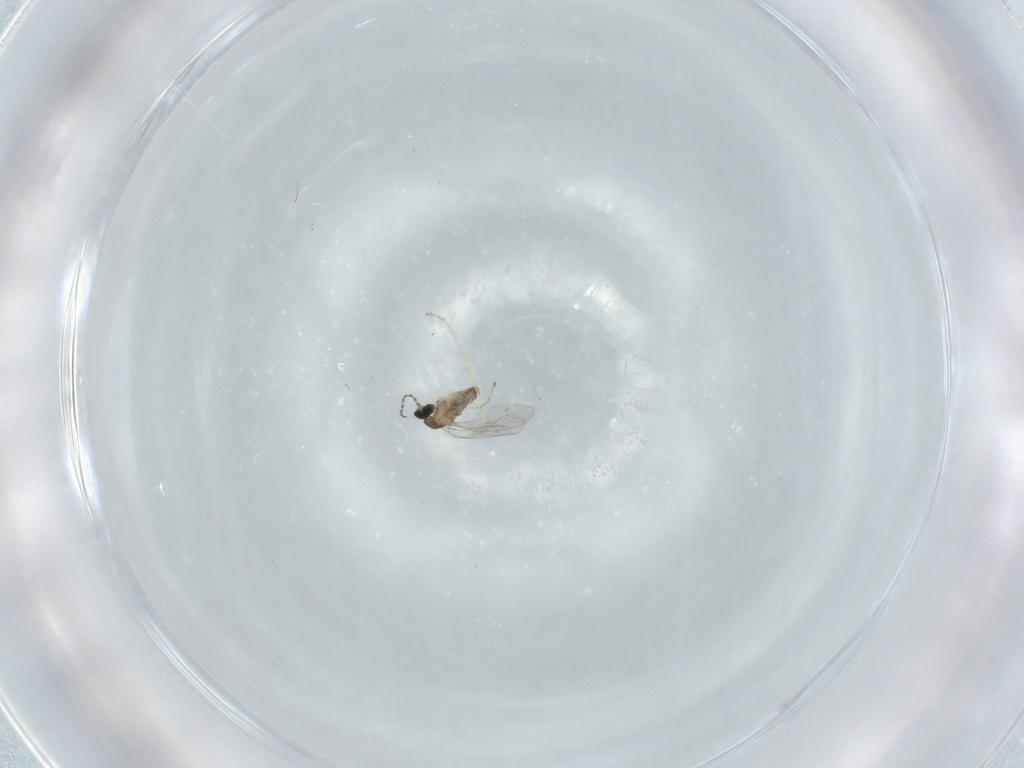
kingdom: Animalia
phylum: Arthropoda
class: Insecta
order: Diptera
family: Cecidomyiidae
